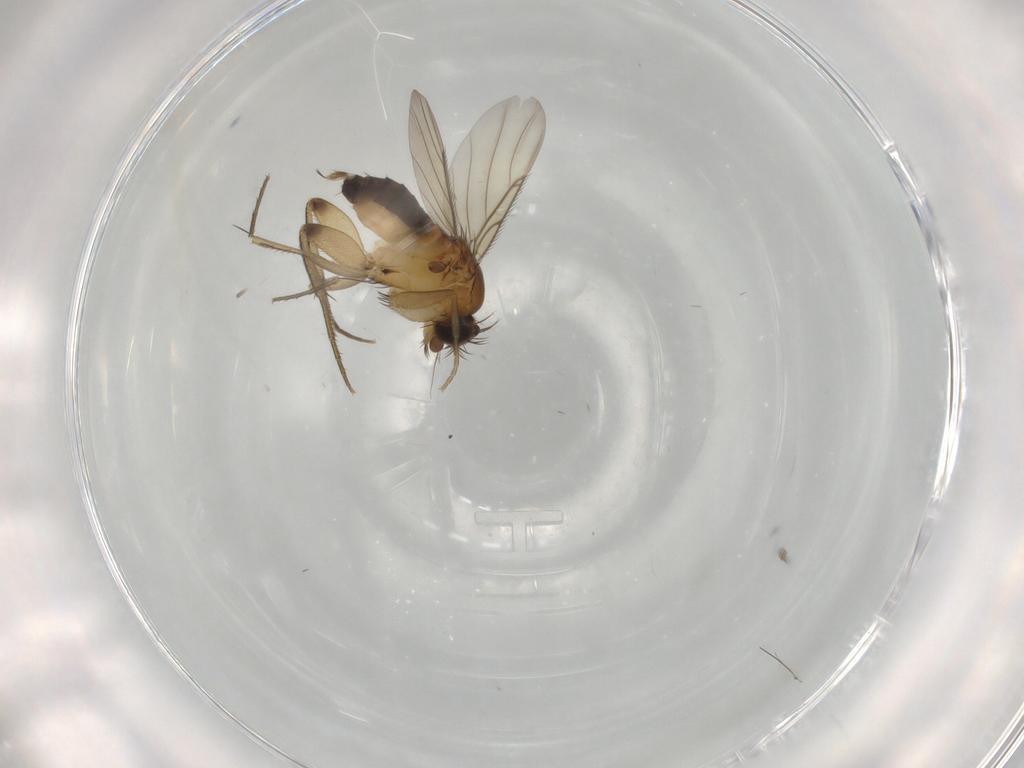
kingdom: Animalia
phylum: Arthropoda
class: Insecta
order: Diptera
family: Phoridae
